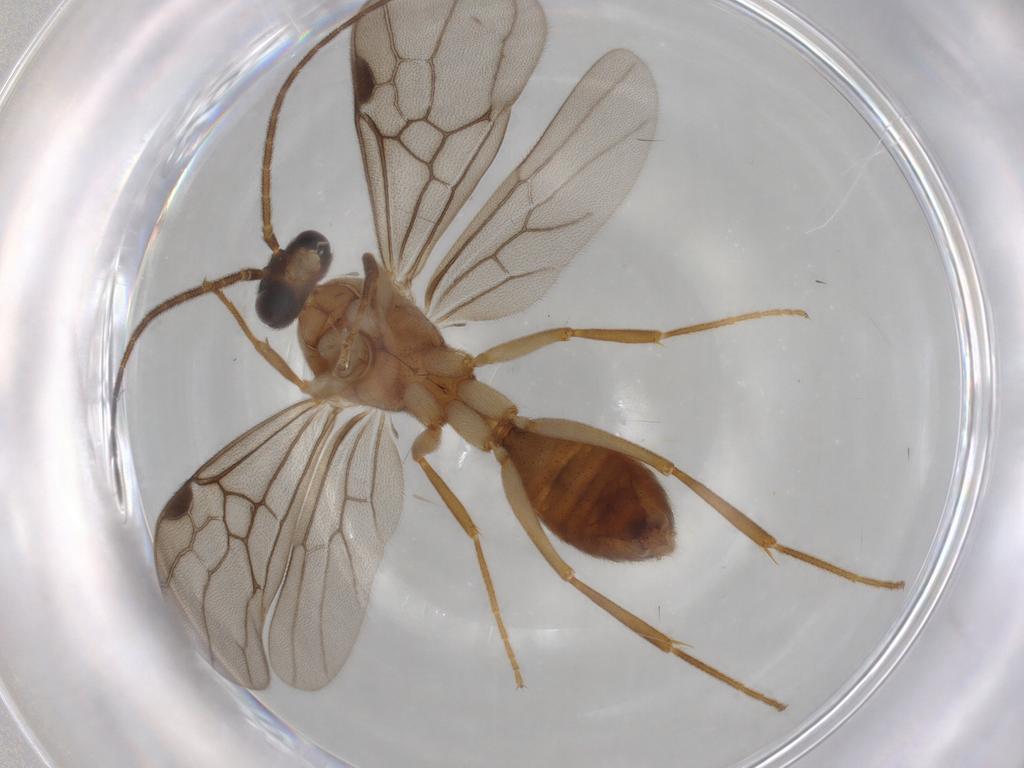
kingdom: Animalia
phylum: Arthropoda
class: Insecta
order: Hymenoptera
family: Formicidae
